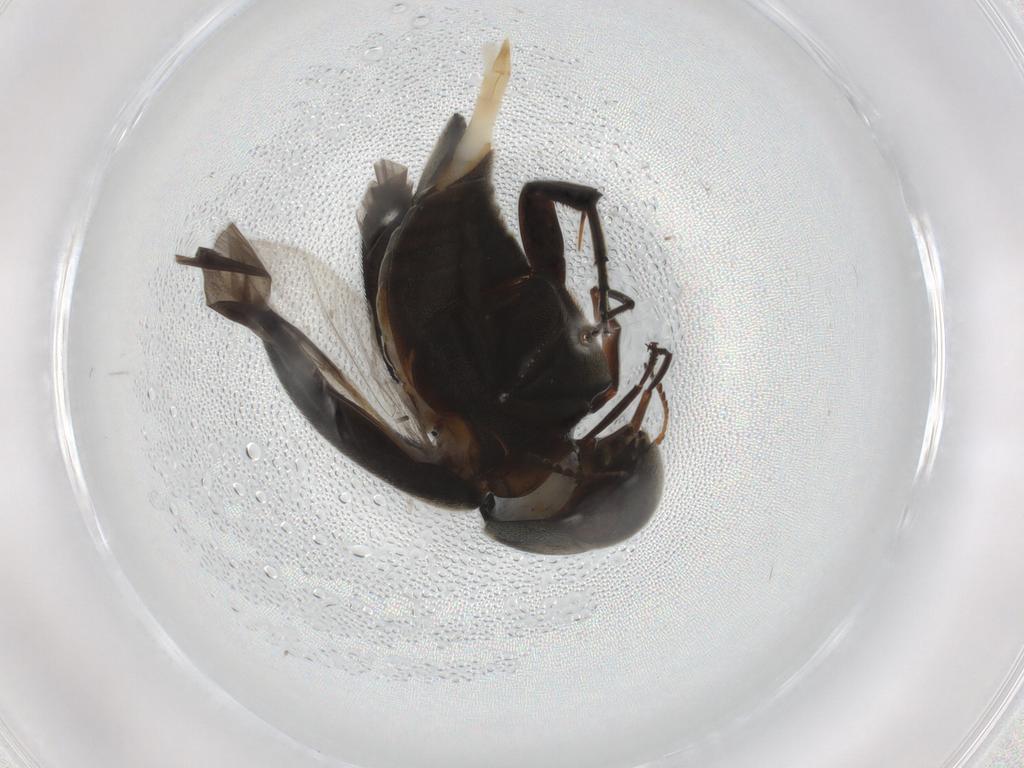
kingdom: Animalia
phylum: Arthropoda
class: Insecta
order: Coleoptera
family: Mordellidae
